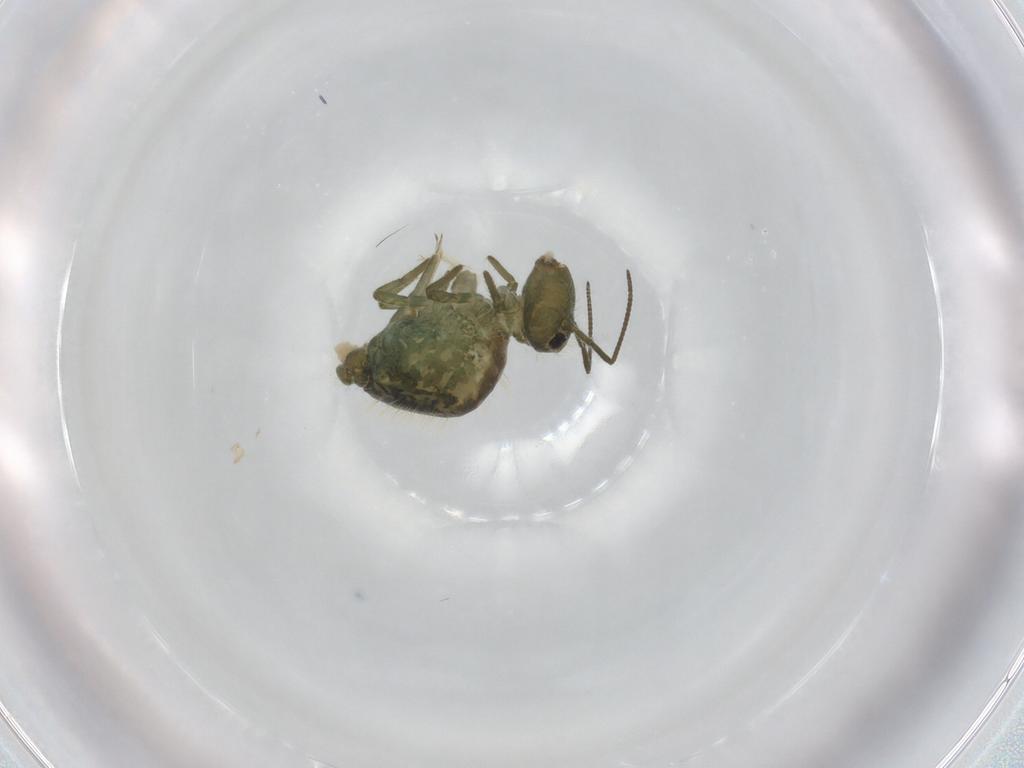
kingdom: Animalia
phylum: Arthropoda
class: Collembola
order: Symphypleona
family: Sminthuridae
